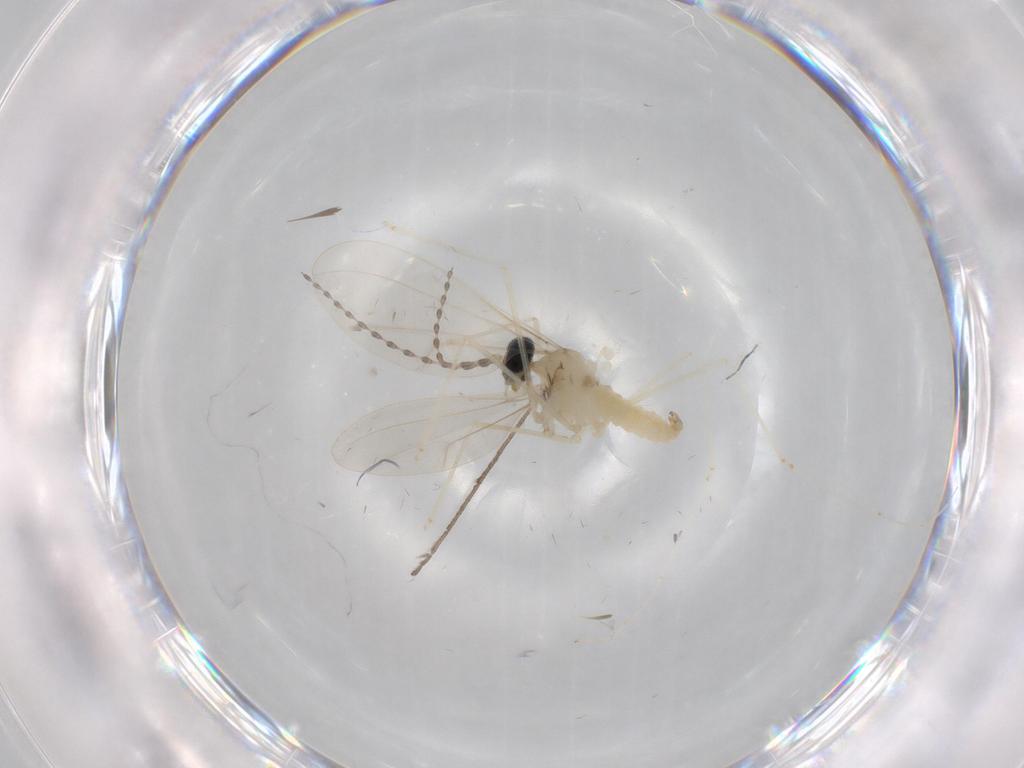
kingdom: Animalia
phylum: Arthropoda
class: Insecta
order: Diptera
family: Cecidomyiidae
